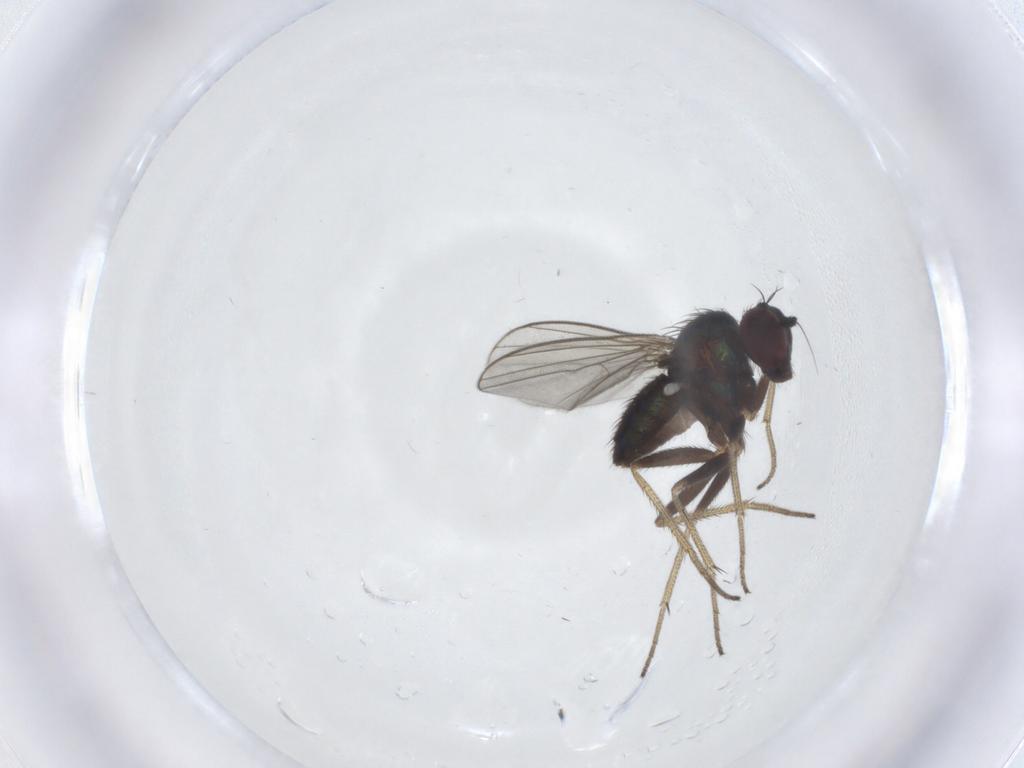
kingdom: Animalia
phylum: Arthropoda
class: Insecta
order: Diptera
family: Dolichopodidae
